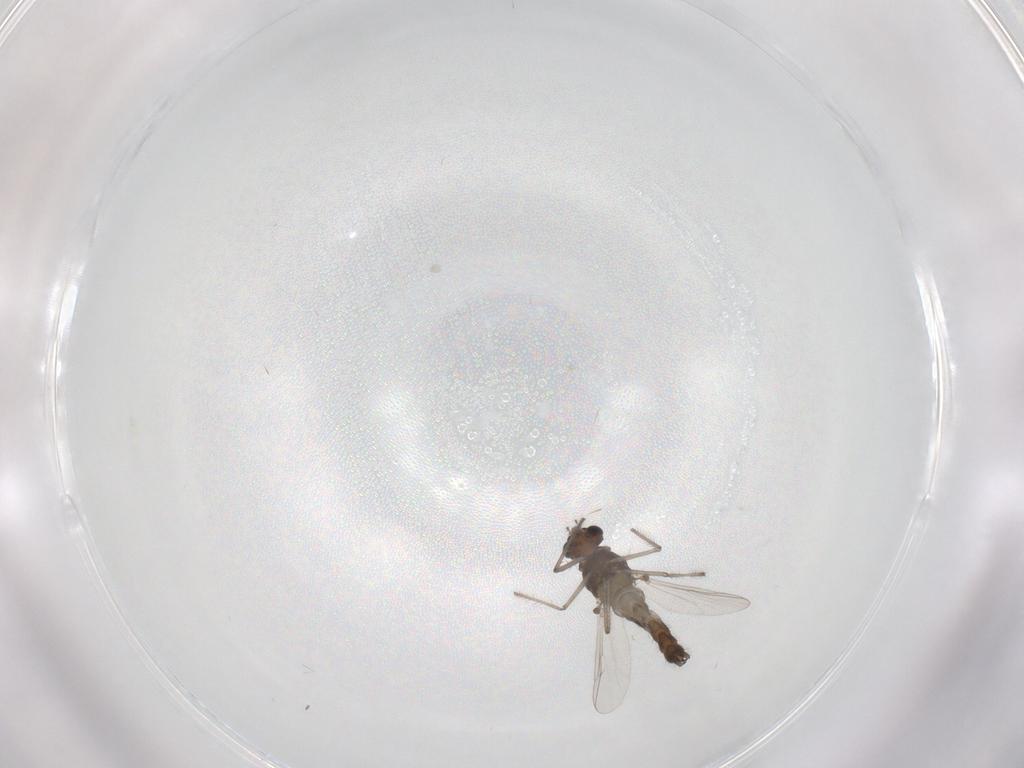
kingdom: Animalia
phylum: Arthropoda
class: Insecta
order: Diptera
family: Chironomidae
